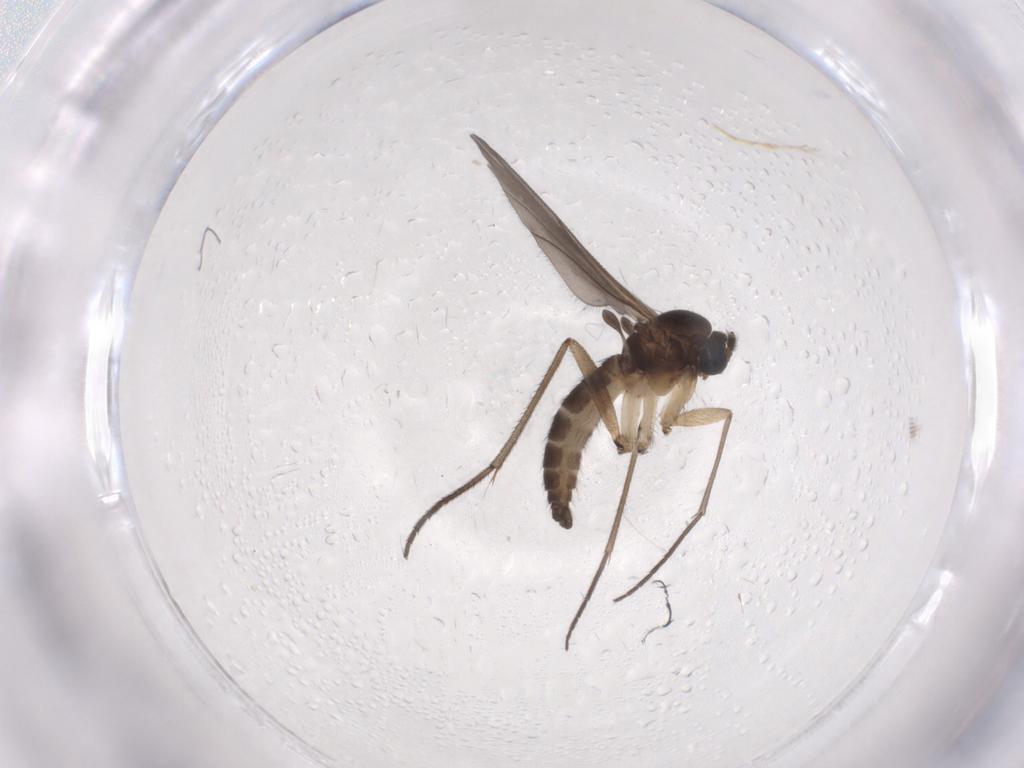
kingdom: Animalia
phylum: Arthropoda
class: Insecta
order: Diptera
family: Sciaridae
